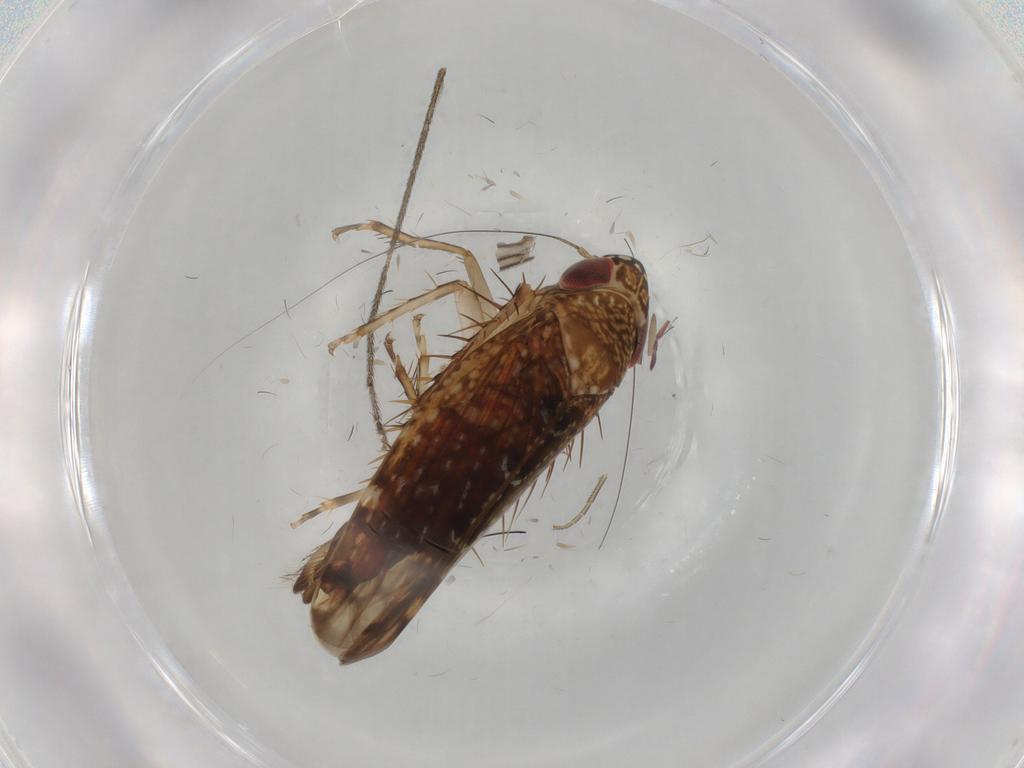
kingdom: Animalia
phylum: Arthropoda
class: Insecta
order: Hemiptera
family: Cicadellidae
